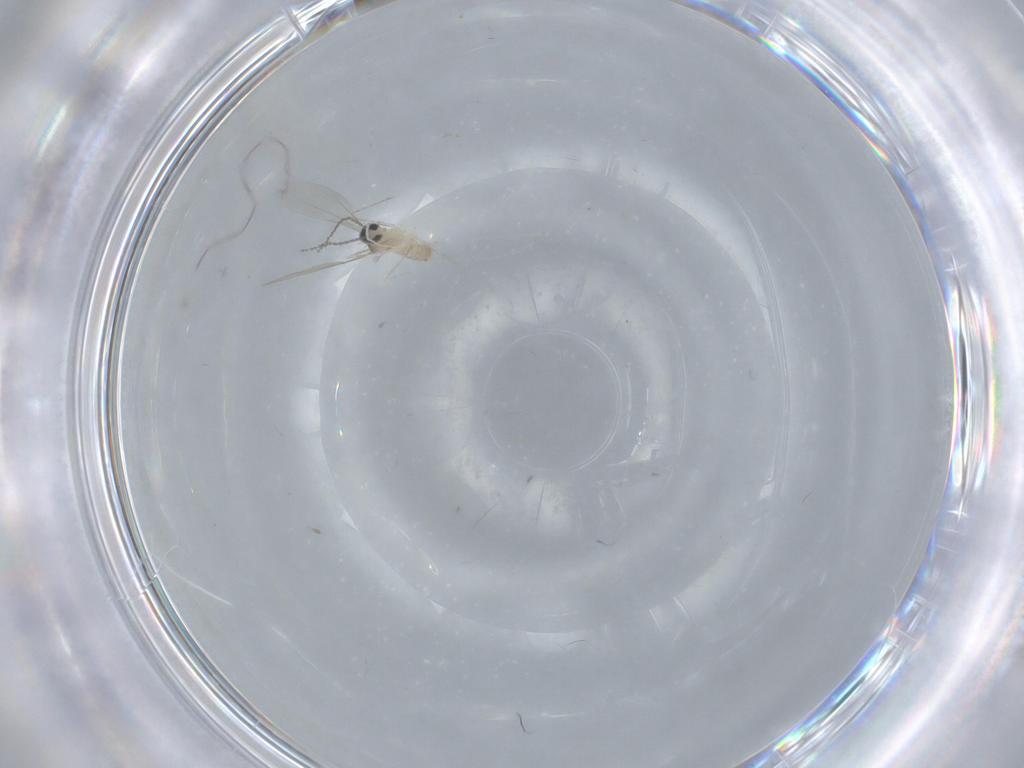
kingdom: Animalia
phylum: Arthropoda
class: Insecta
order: Diptera
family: Cecidomyiidae
